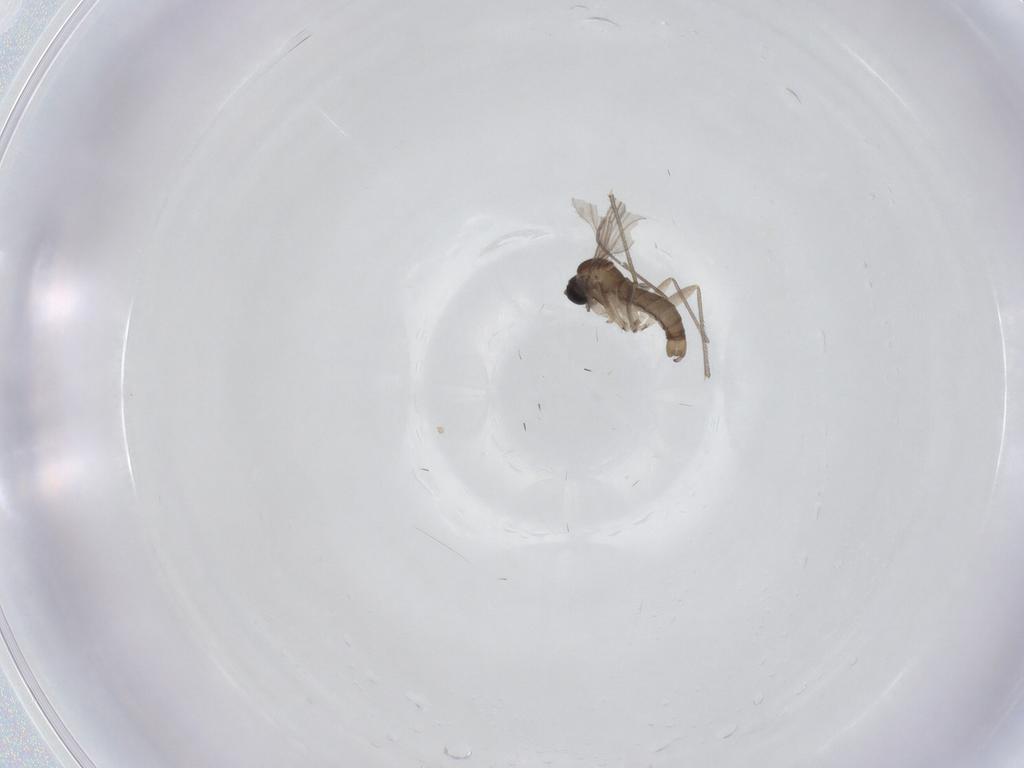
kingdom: Animalia
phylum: Arthropoda
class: Insecta
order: Diptera
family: Sciaridae
